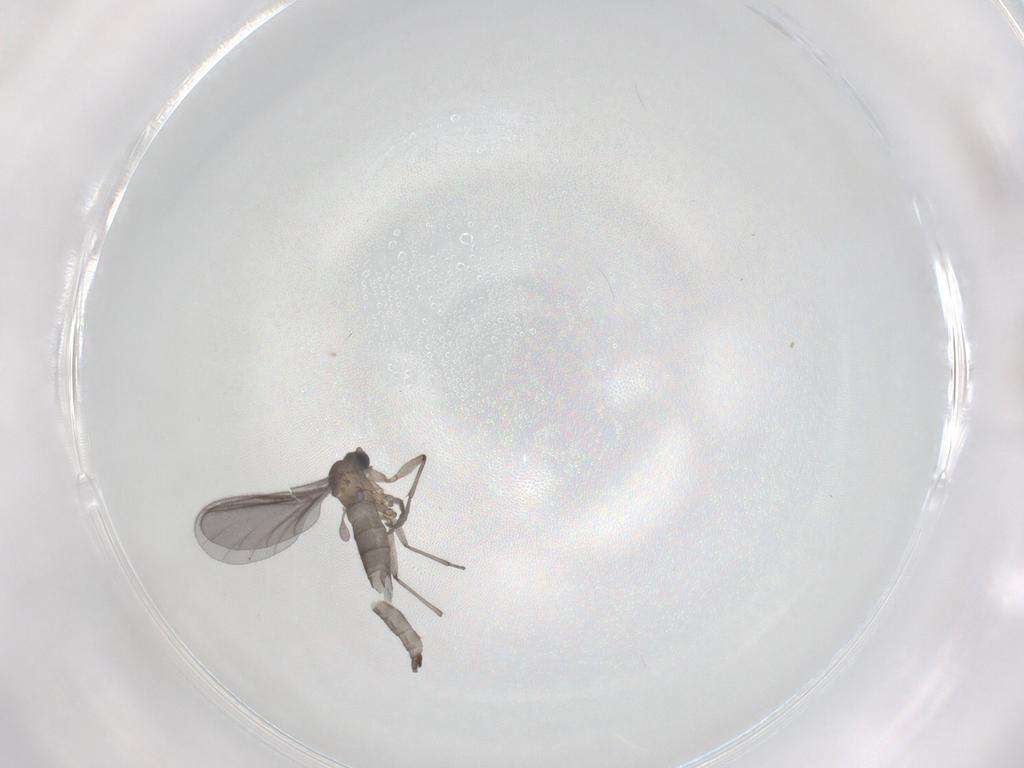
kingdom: Animalia
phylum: Arthropoda
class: Insecta
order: Diptera
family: Sciaridae
